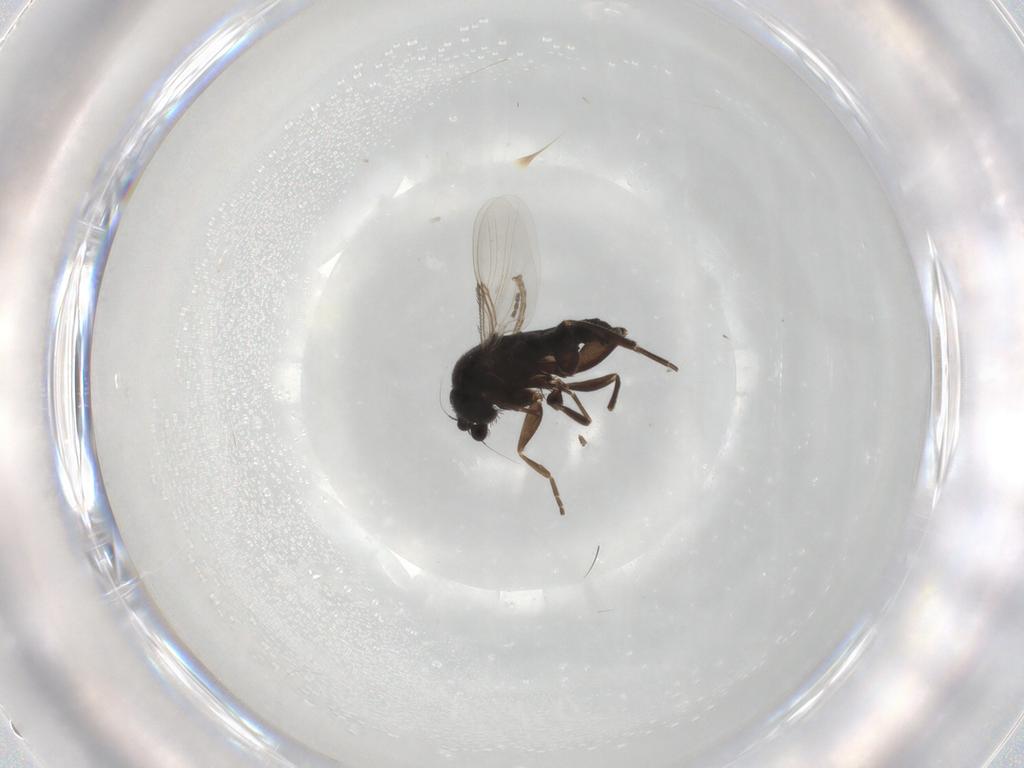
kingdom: Animalia
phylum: Arthropoda
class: Insecta
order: Diptera
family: Phoridae
